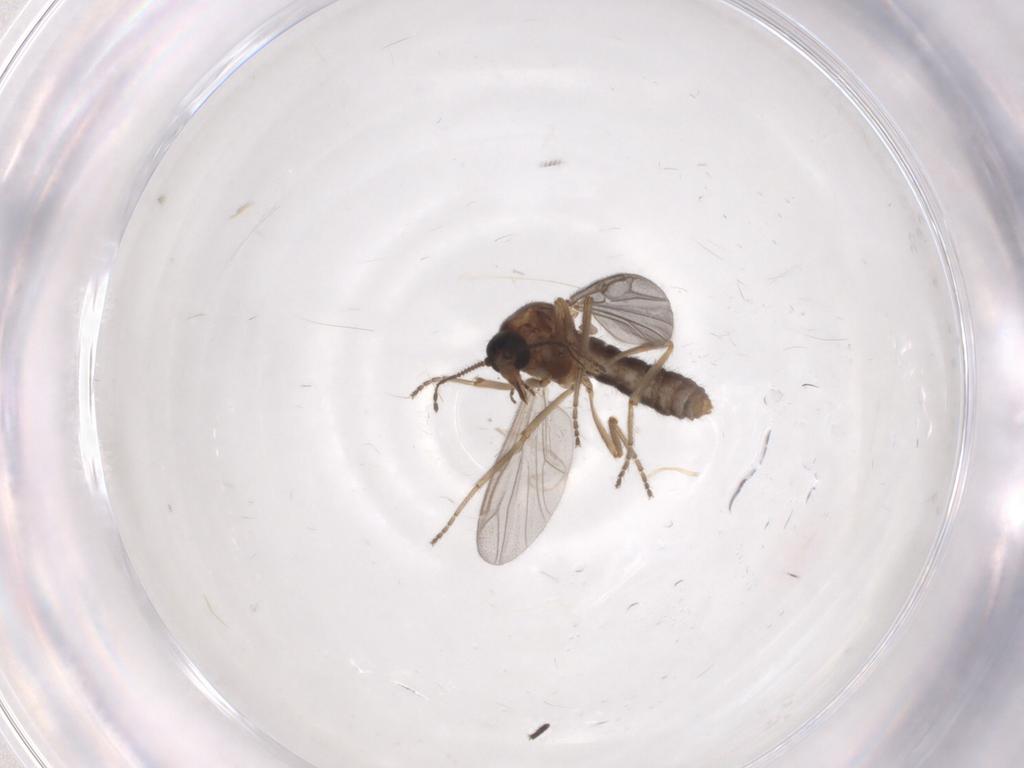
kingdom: Animalia
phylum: Arthropoda
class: Insecta
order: Diptera
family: Ceratopogonidae
